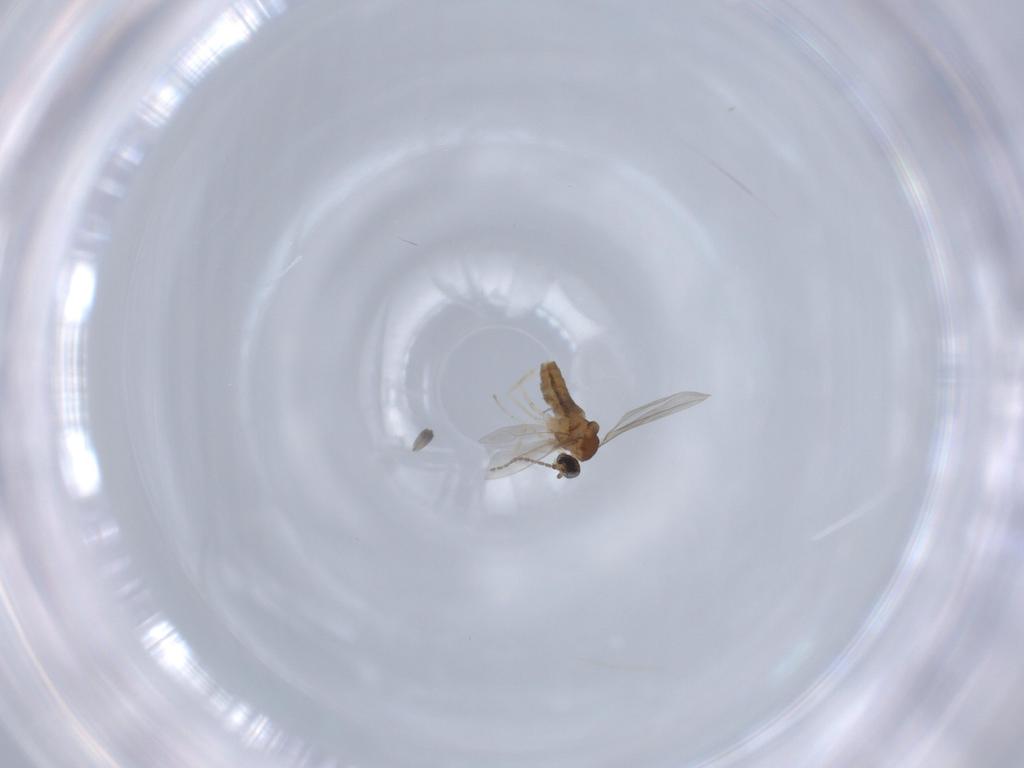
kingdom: Animalia
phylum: Arthropoda
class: Insecta
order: Diptera
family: Cecidomyiidae
